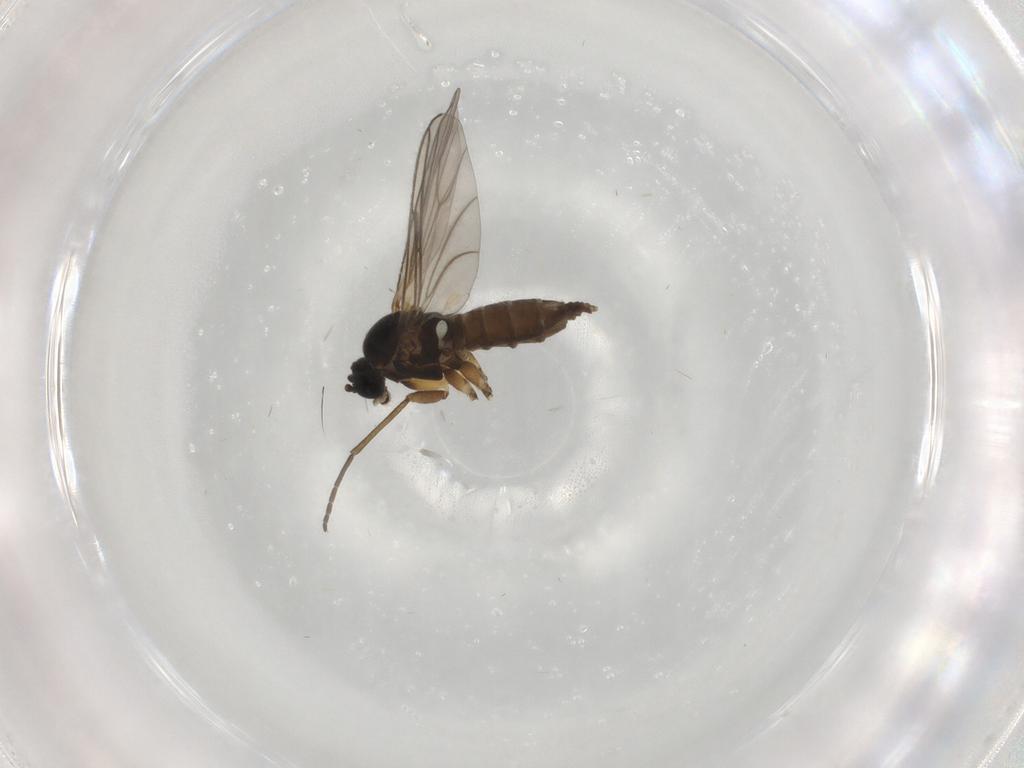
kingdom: Animalia
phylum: Arthropoda
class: Insecta
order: Diptera
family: Sciaridae
